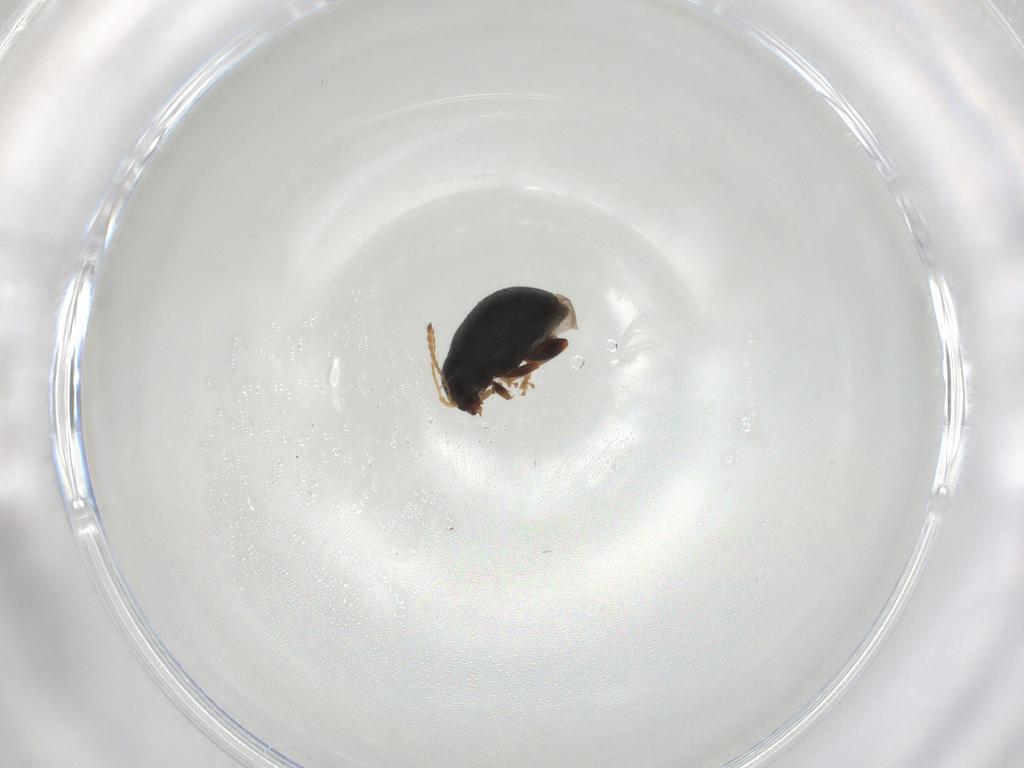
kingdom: Animalia
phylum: Arthropoda
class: Insecta
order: Coleoptera
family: Chrysomelidae
